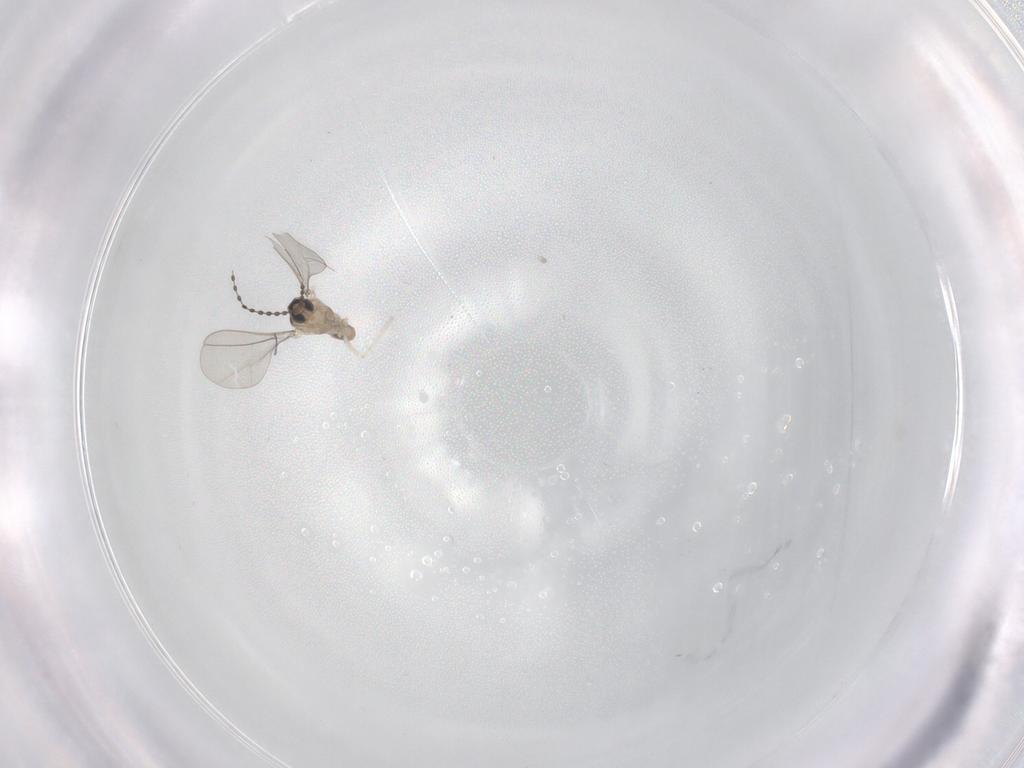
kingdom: Animalia
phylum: Arthropoda
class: Insecta
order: Diptera
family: Cecidomyiidae
